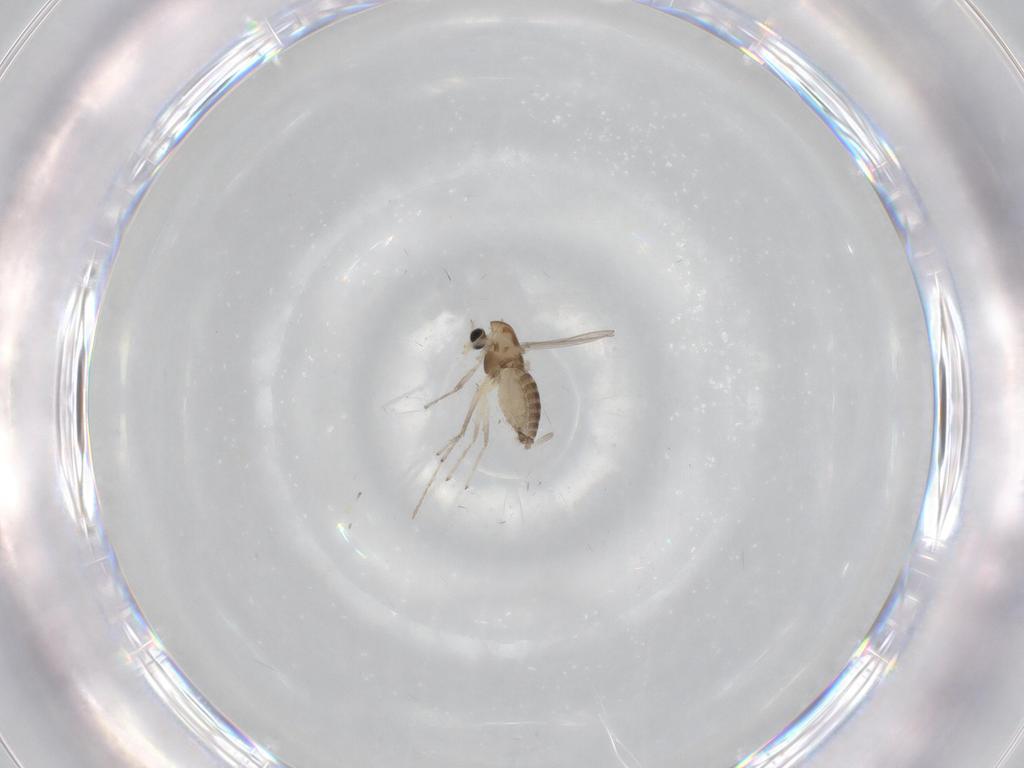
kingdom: Animalia
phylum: Arthropoda
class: Insecta
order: Diptera
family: Chironomidae
